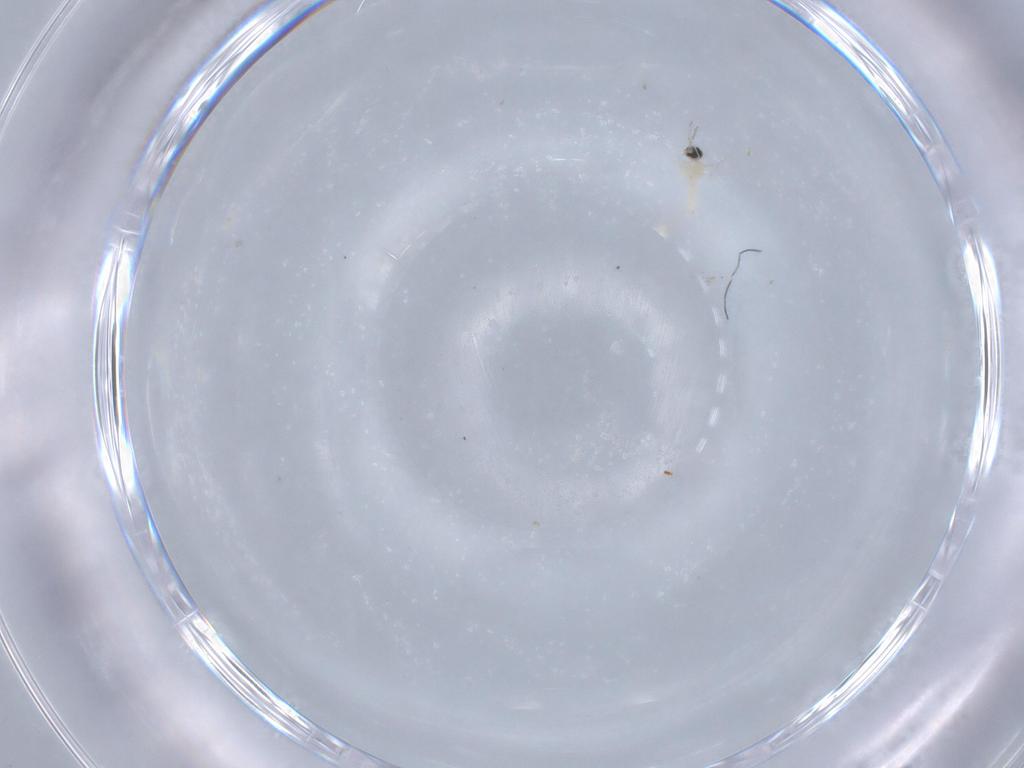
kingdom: Animalia
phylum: Arthropoda
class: Insecta
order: Diptera
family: Cecidomyiidae
